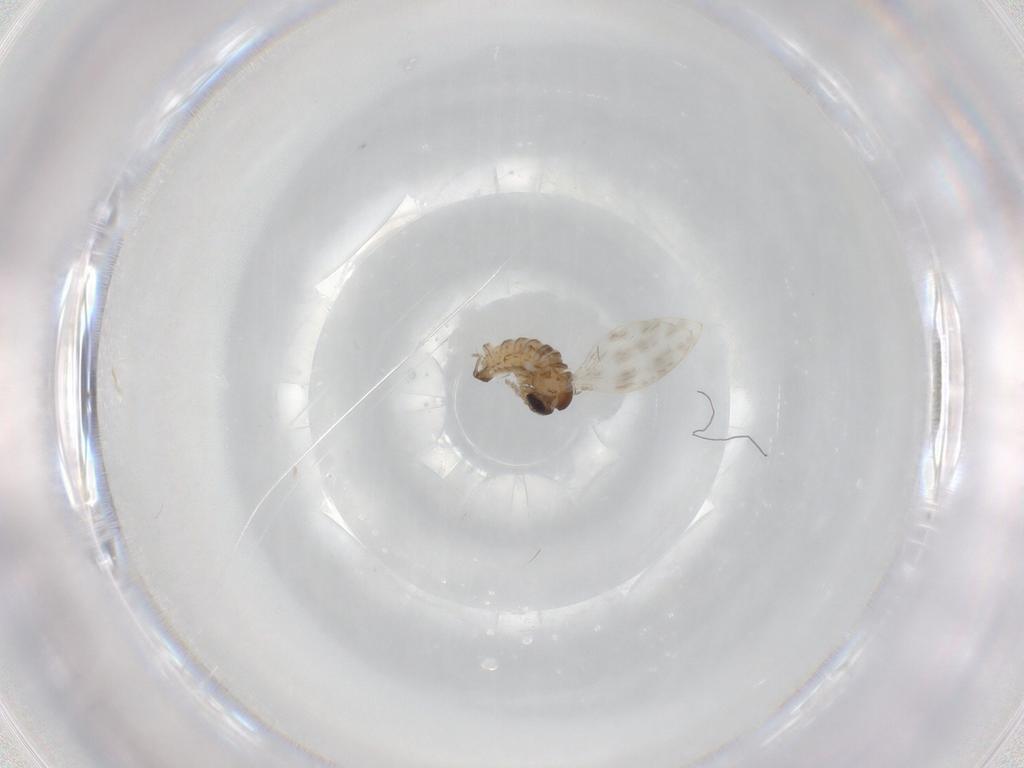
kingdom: Animalia
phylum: Arthropoda
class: Insecta
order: Diptera
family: Psychodidae
